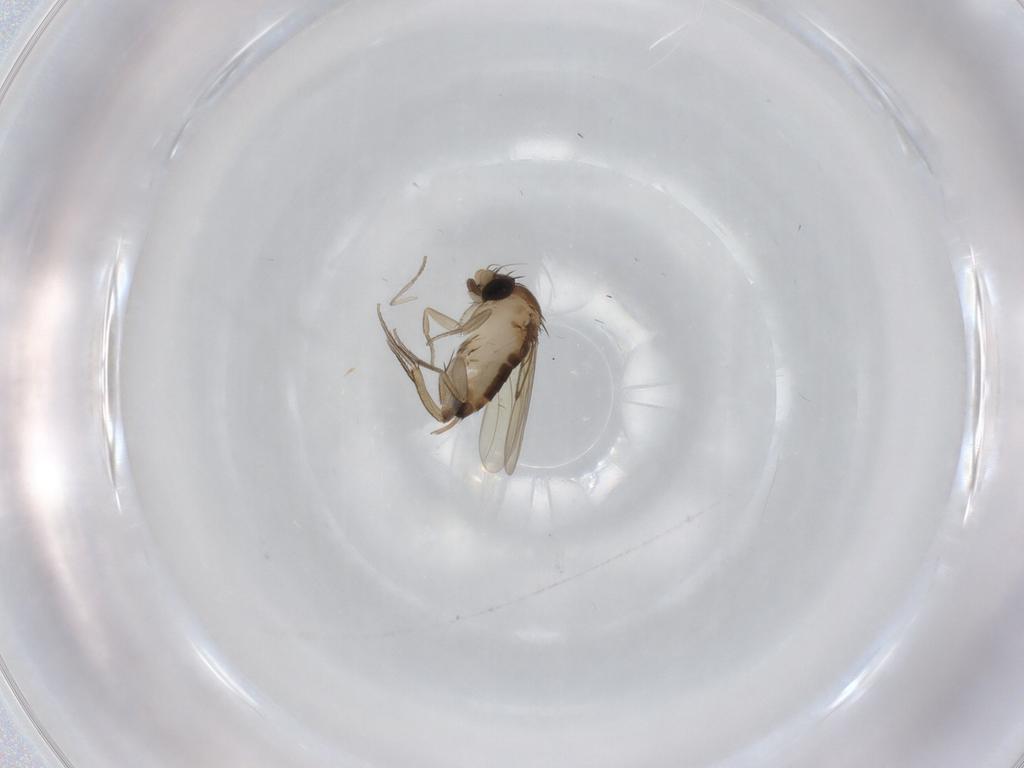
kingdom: Animalia
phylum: Arthropoda
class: Insecta
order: Diptera
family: Phoridae
